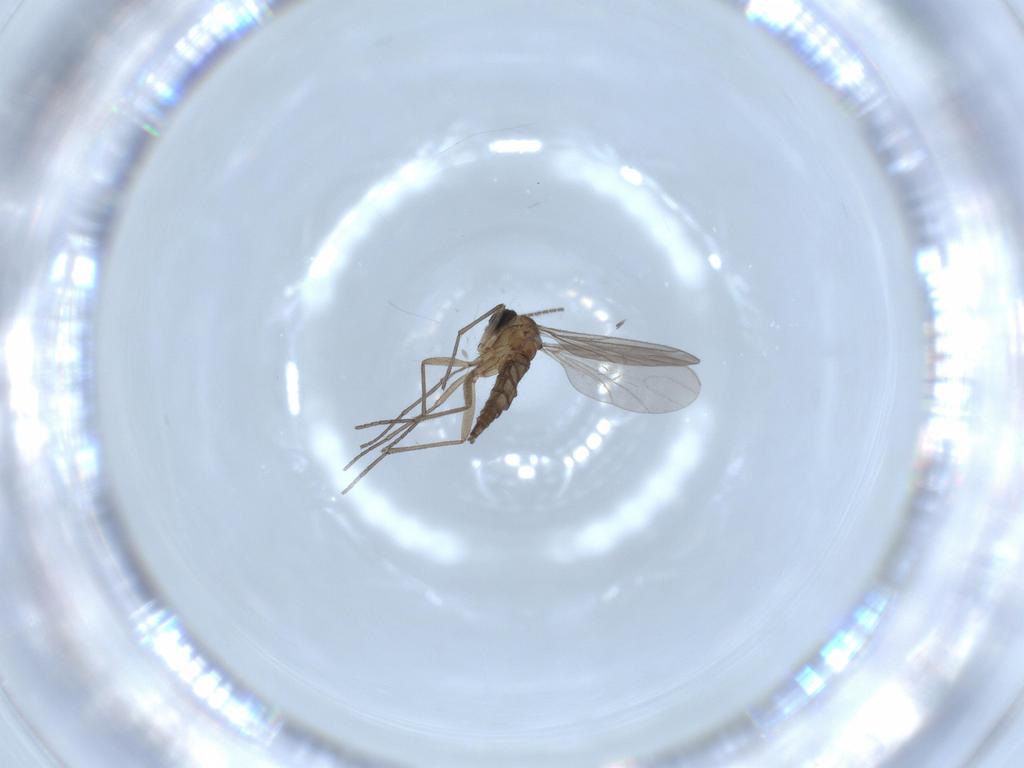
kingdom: Animalia
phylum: Arthropoda
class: Insecta
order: Diptera
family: Sciaridae
